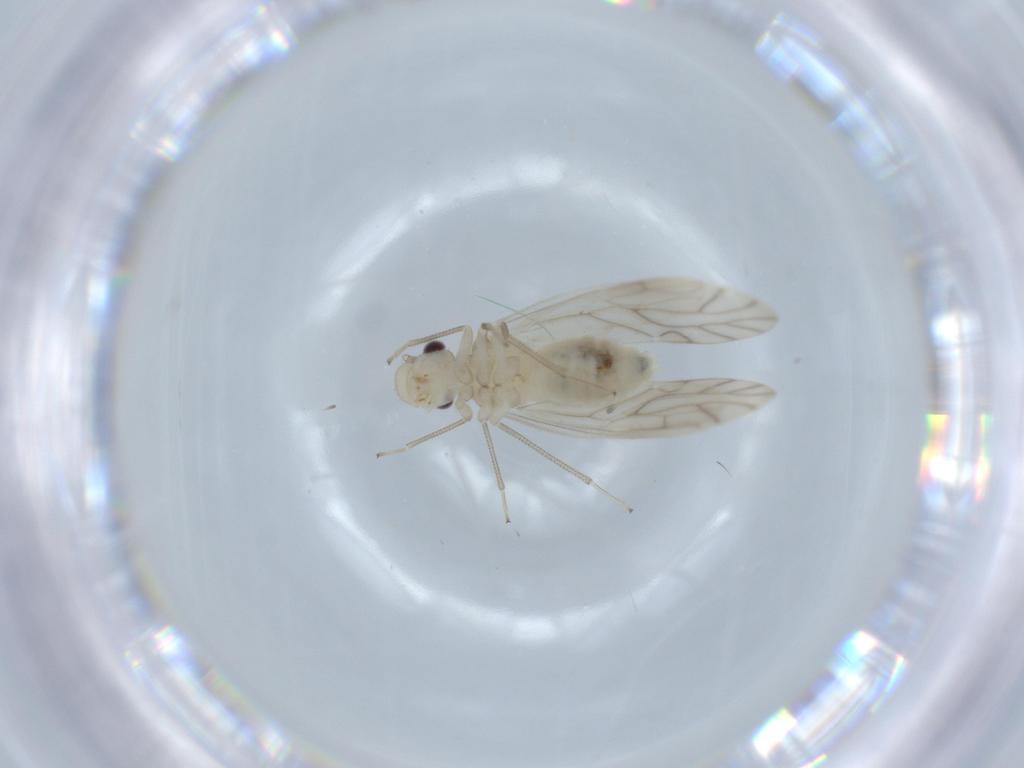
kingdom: Animalia
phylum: Arthropoda
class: Insecta
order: Psocodea
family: Caeciliusidae
